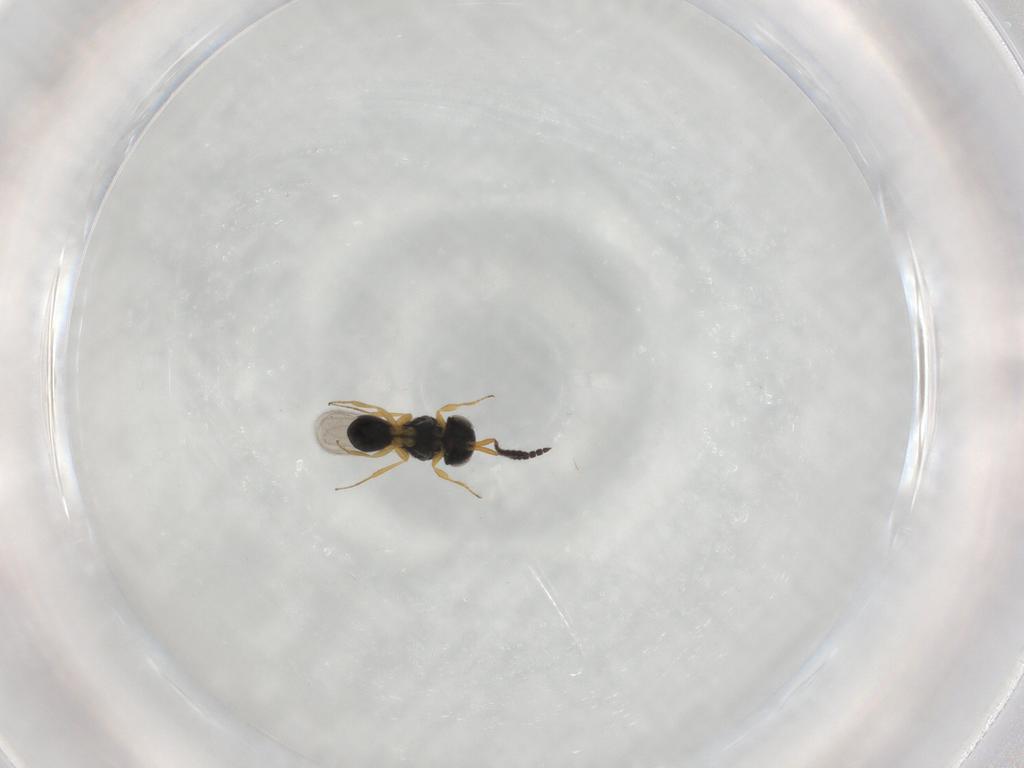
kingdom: Animalia
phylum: Arthropoda
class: Insecta
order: Hymenoptera
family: Scelionidae
